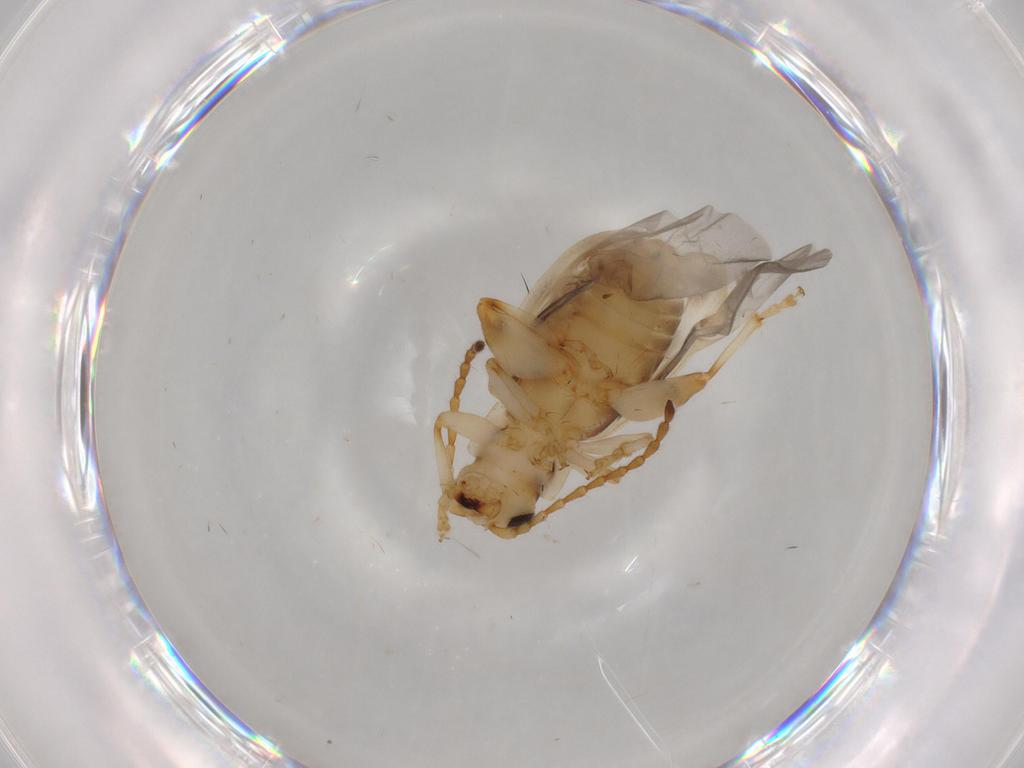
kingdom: Animalia
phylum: Arthropoda
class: Insecta
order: Coleoptera
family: Chrysomelidae
